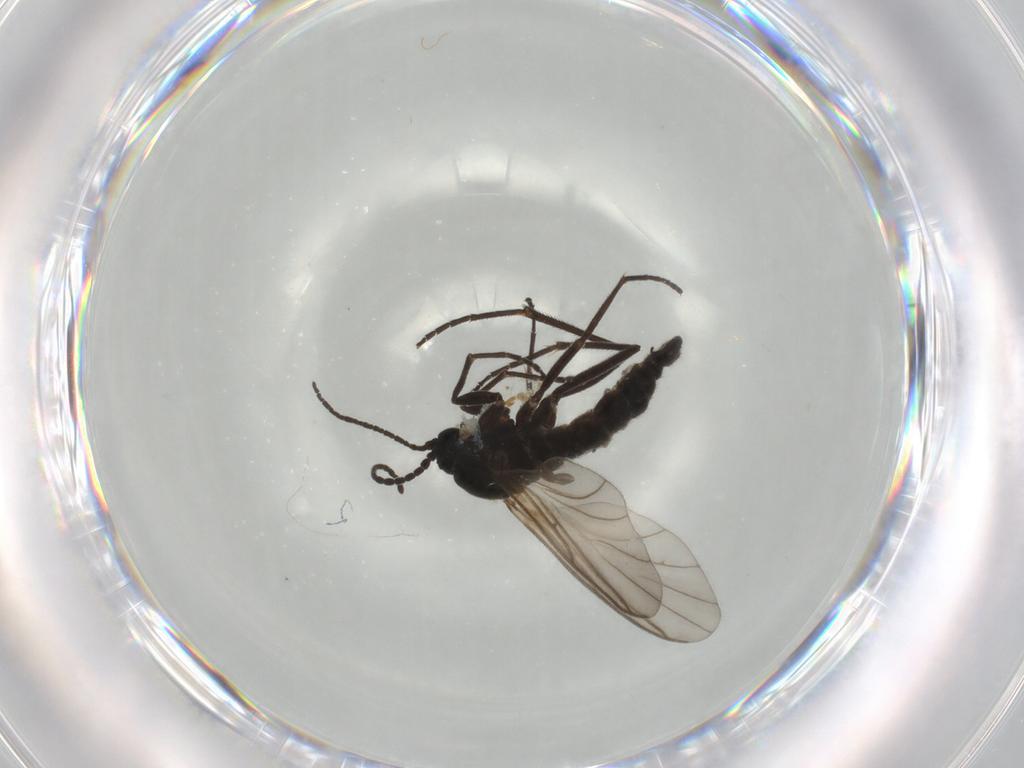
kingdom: Animalia
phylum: Arthropoda
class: Insecta
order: Diptera
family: Sciaridae
